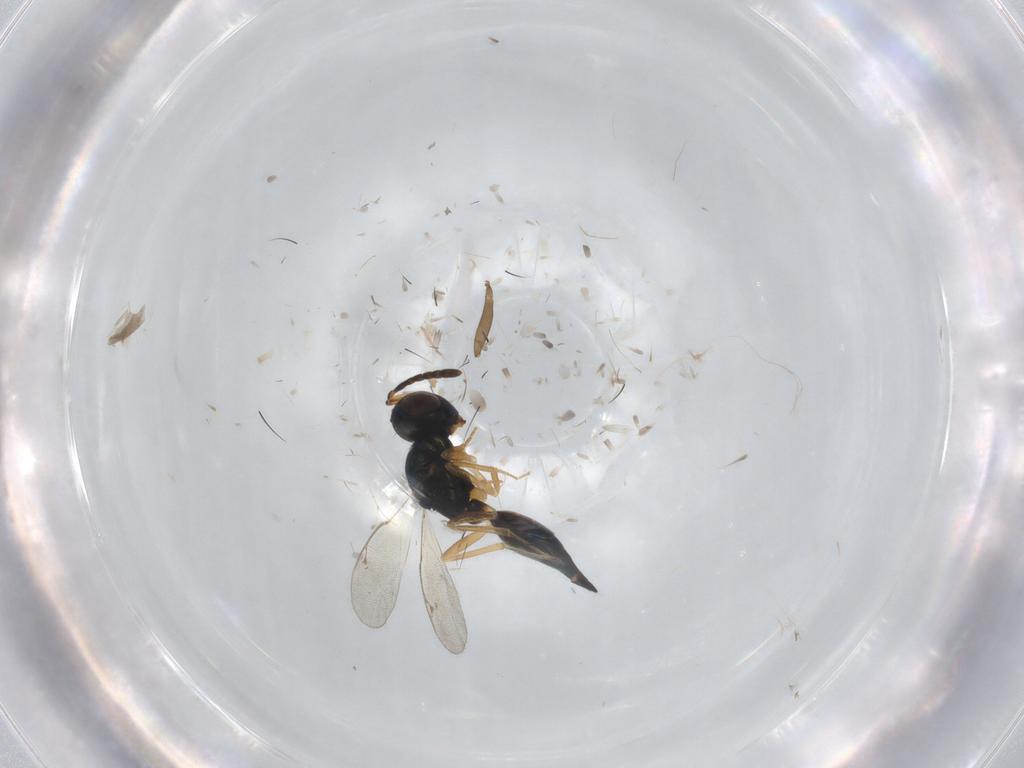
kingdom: Animalia
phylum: Arthropoda
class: Insecta
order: Hymenoptera
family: Formicidae
